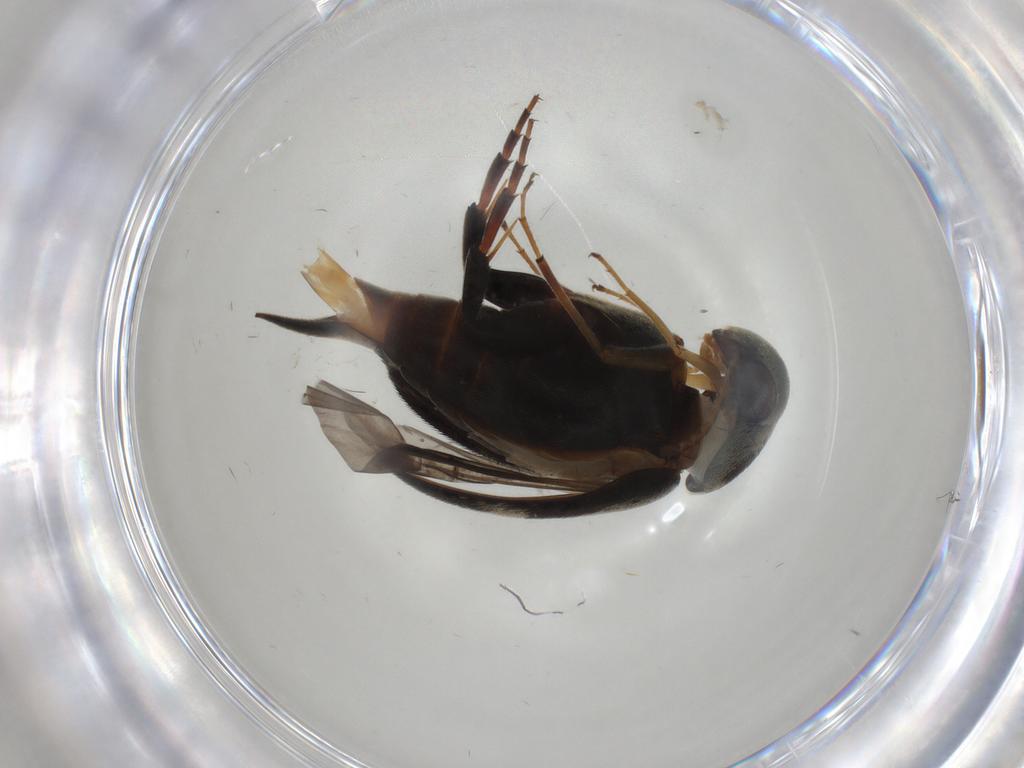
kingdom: Animalia
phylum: Arthropoda
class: Insecta
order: Coleoptera
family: Mordellidae
